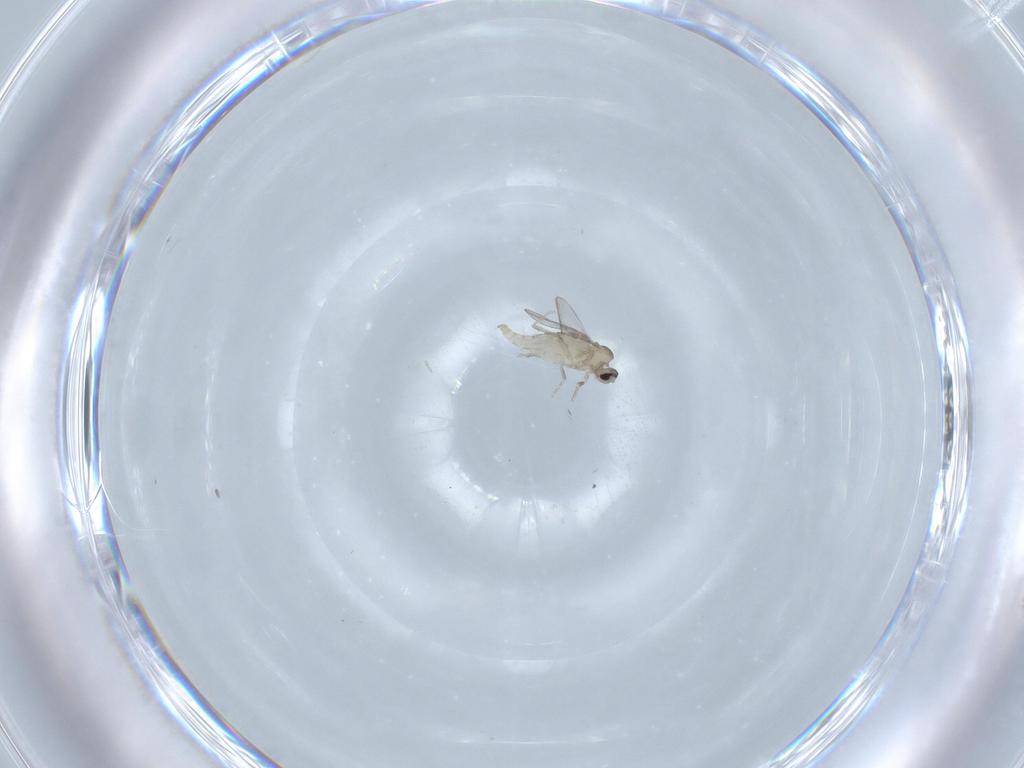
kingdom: Animalia
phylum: Arthropoda
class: Insecta
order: Diptera
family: Cecidomyiidae
